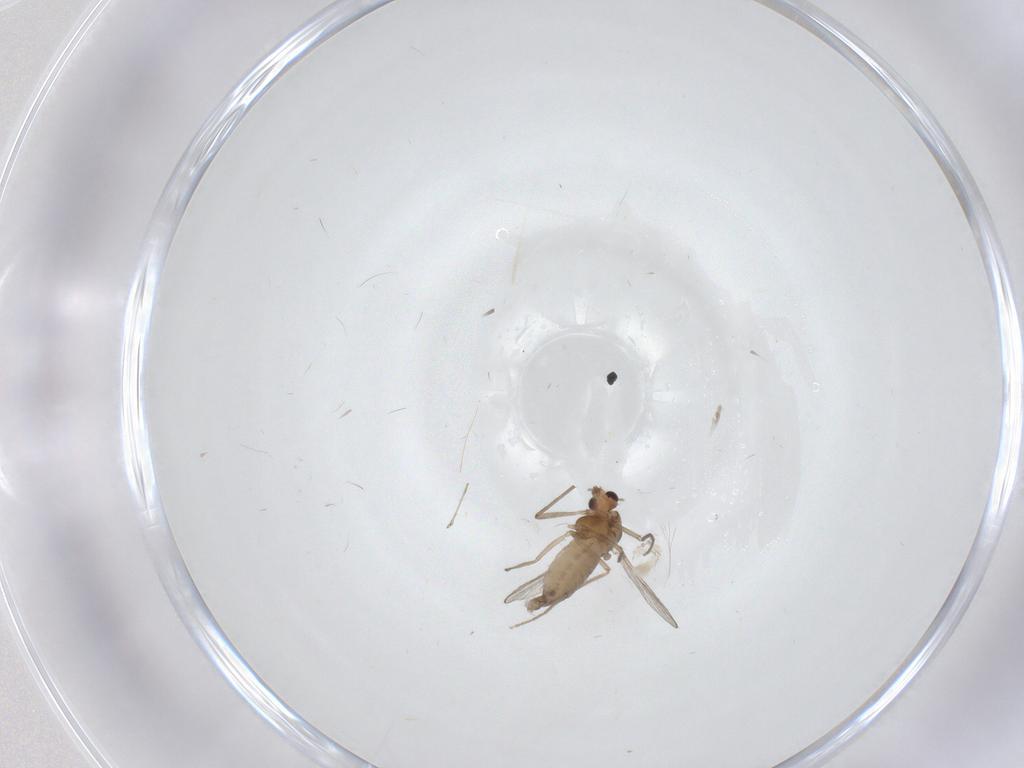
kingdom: Animalia
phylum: Arthropoda
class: Insecta
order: Diptera
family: Chironomidae
